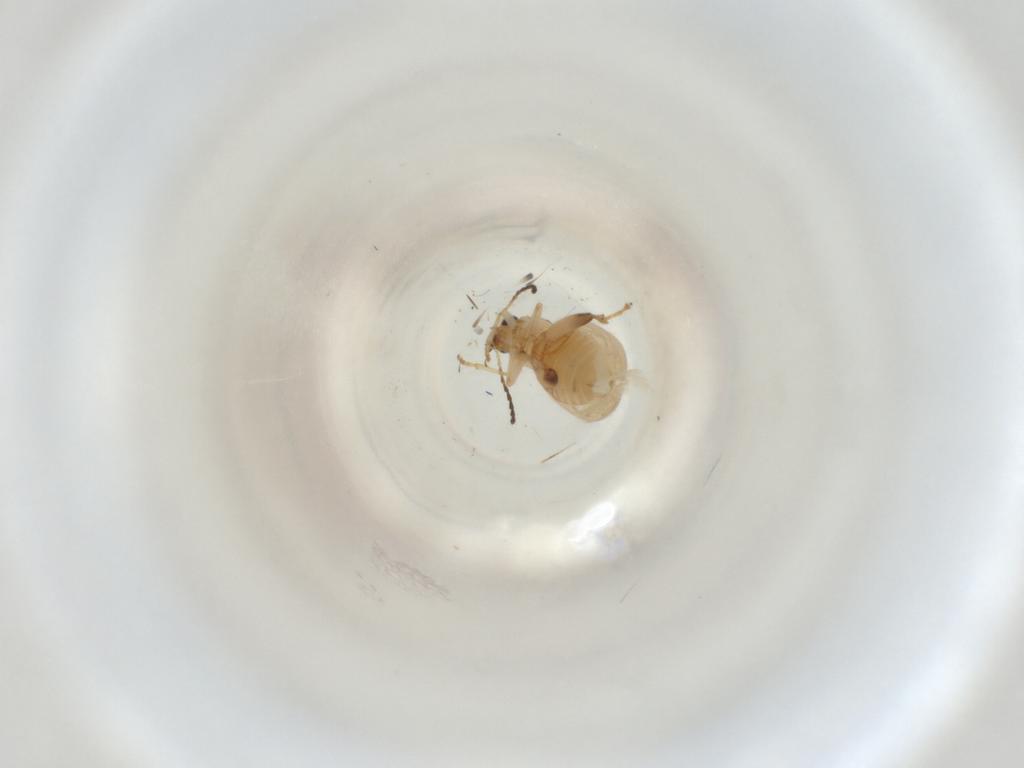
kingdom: Animalia
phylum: Arthropoda
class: Insecta
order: Coleoptera
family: Chrysomelidae
